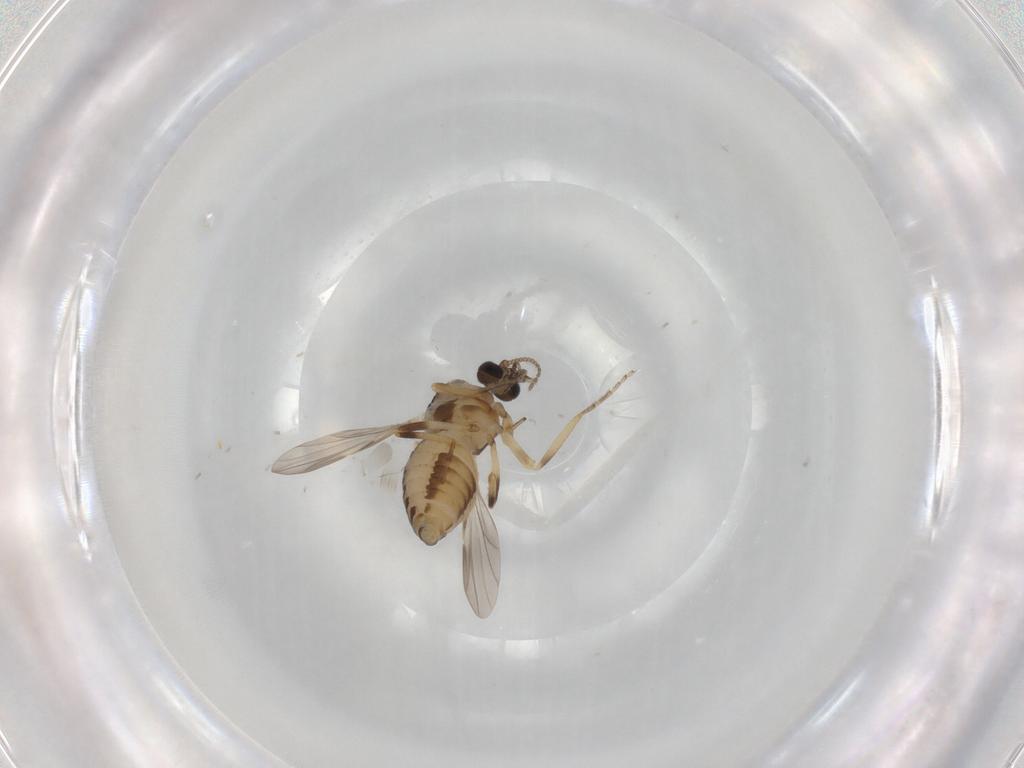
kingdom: Animalia
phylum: Arthropoda
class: Insecta
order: Diptera
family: Ceratopogonidae
